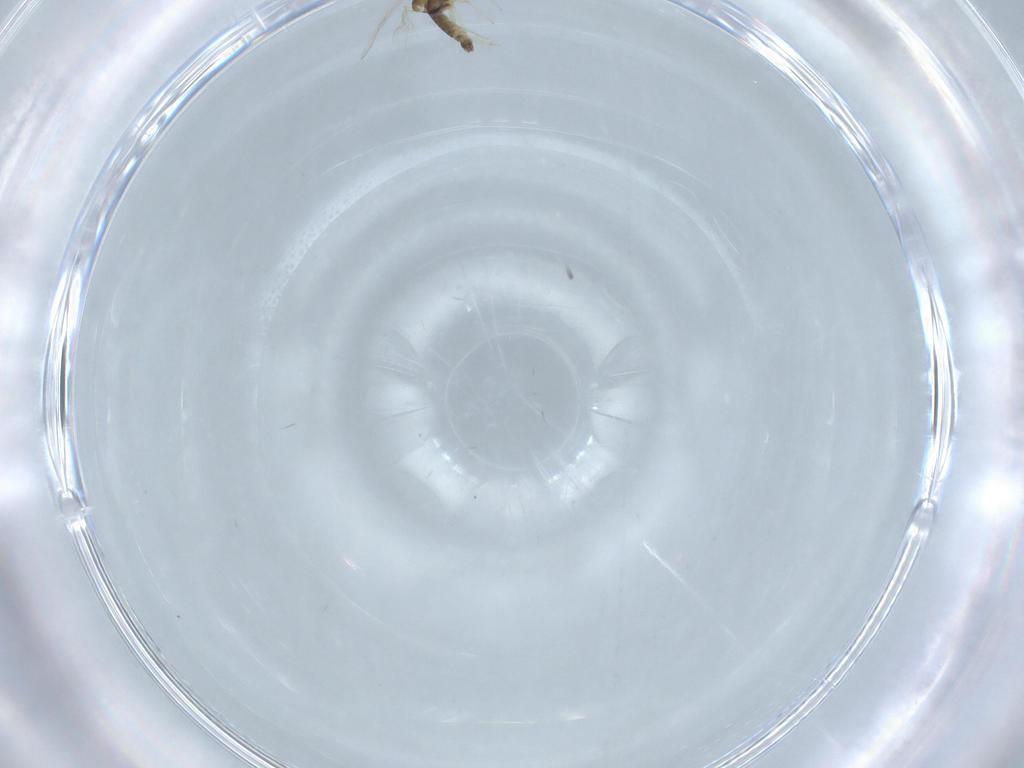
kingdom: Animalia
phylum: Arthropoda
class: Insecta
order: Diptera
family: Chironomidae
